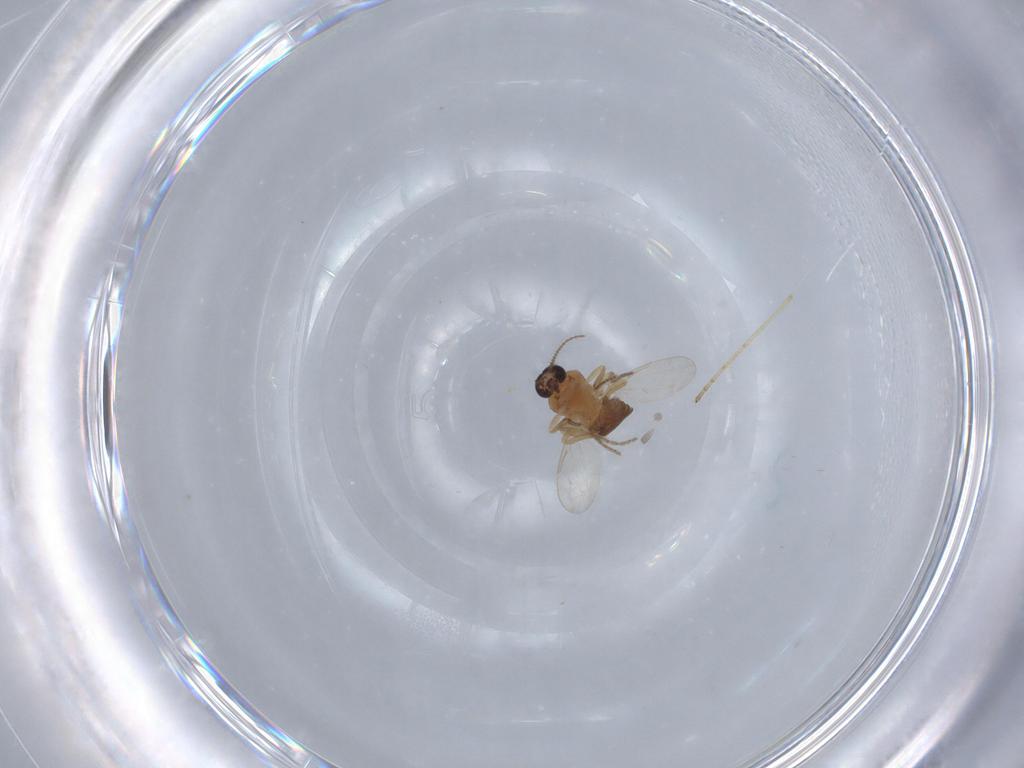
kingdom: Animalia
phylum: Arthropoda
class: Insecta
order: Diptera
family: Ceratopogonidae
